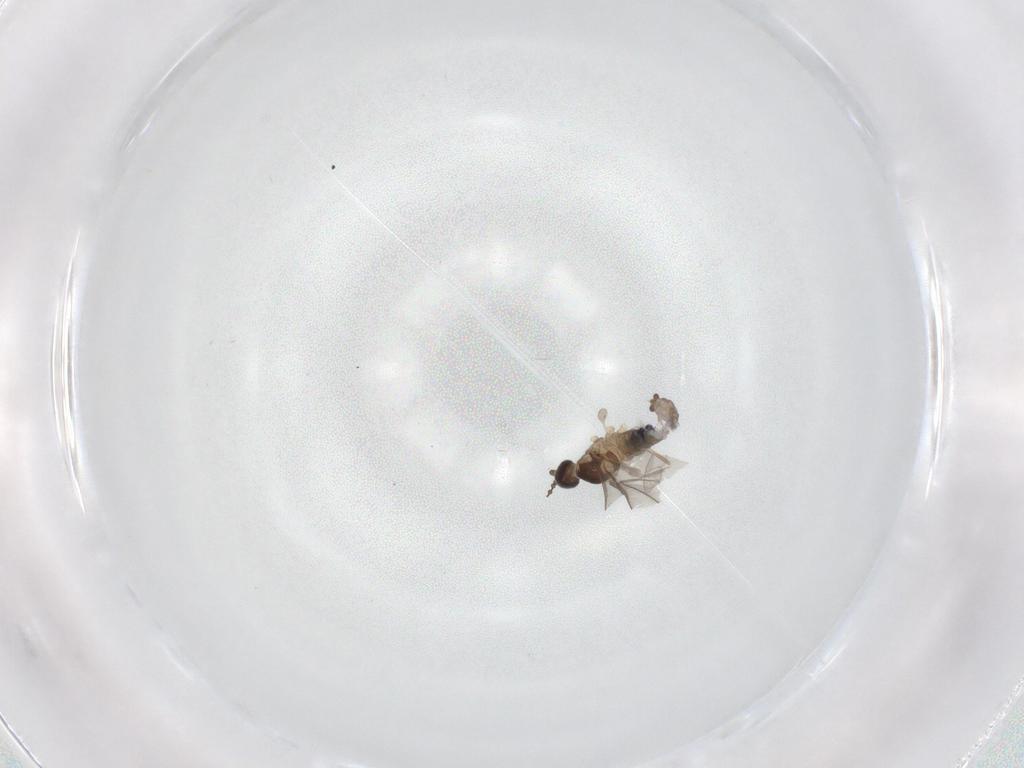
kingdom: Animalia
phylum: Arthropoda
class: Insecta
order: Diptera
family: Cecidomyiidae
